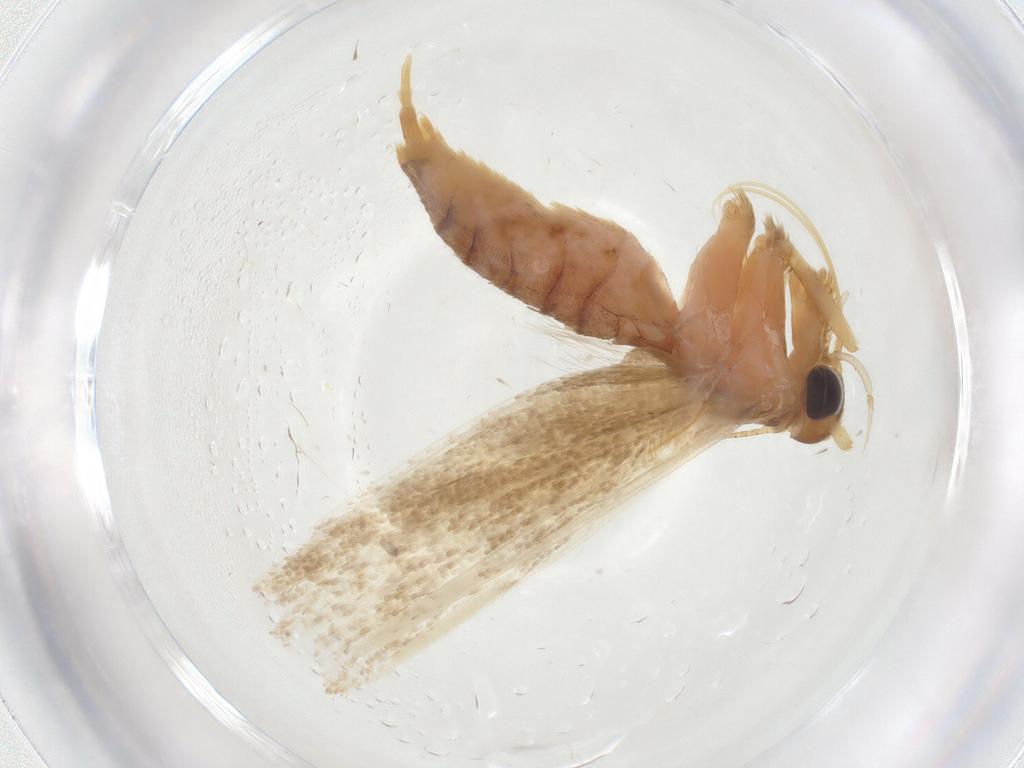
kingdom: Animalia
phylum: Arthropoda
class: Insecta
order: Lepidoptera
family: Blastobasidae
